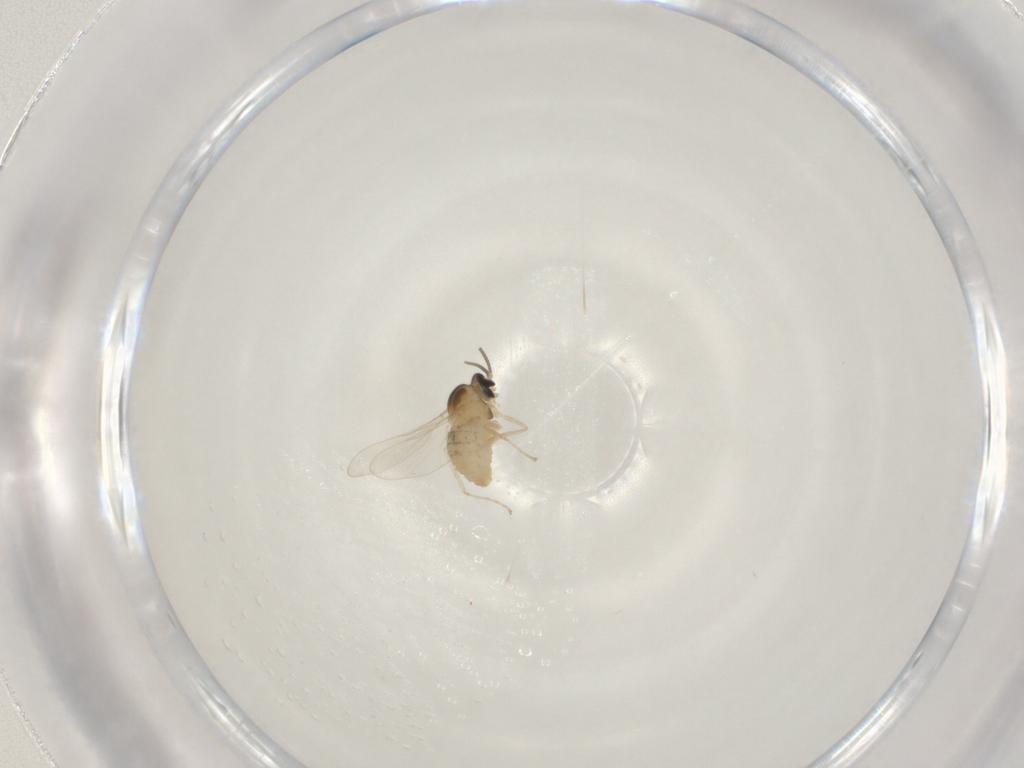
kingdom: Animalia
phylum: Arthropoda
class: Insecta
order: Diptera
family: Cecidomyiidae
